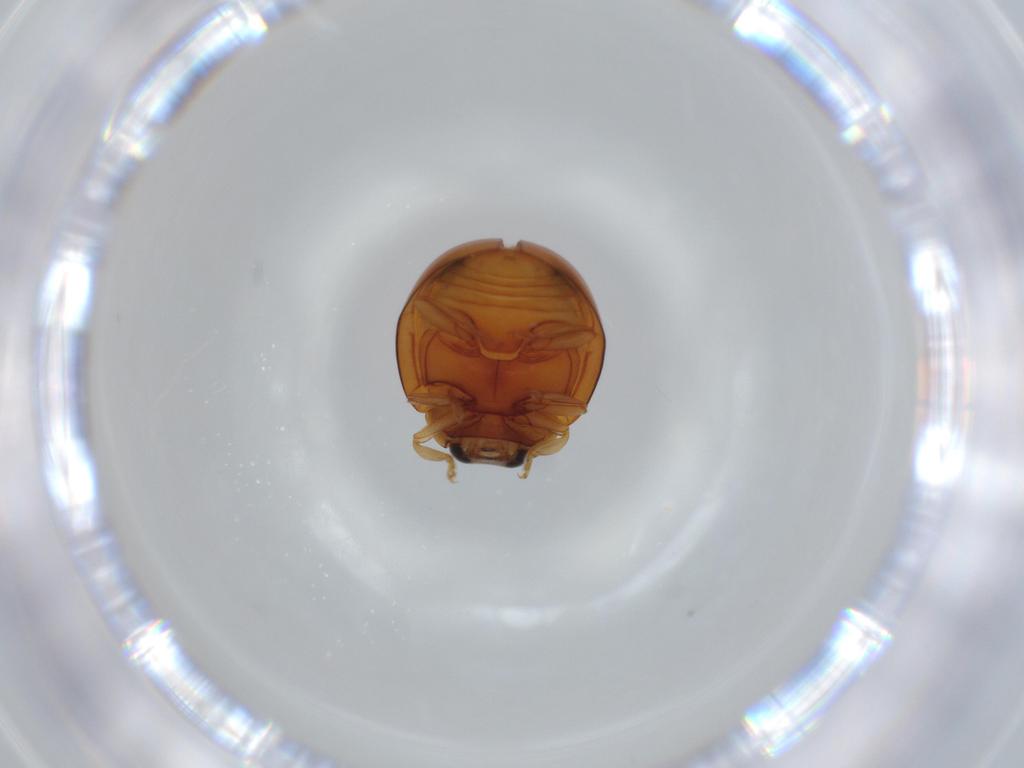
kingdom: Animalia
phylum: Arthropoda
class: Insecta
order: Coleoptera
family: Coccinellidae
